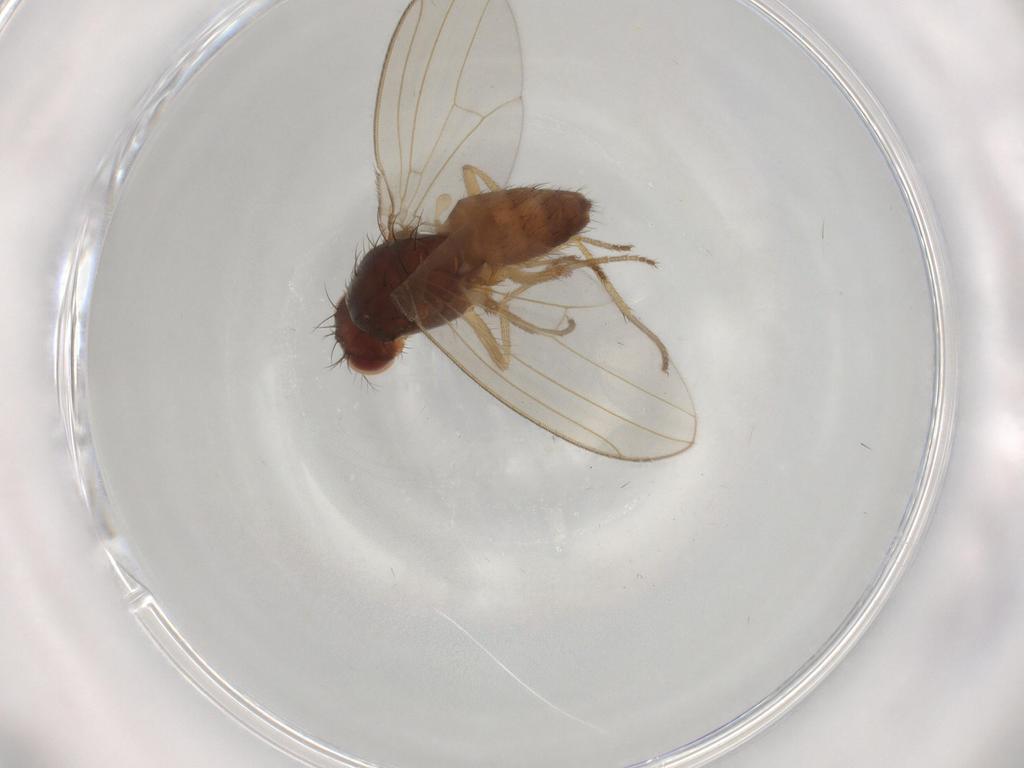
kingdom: Animalia
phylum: Arthropoda
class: Insecta
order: Diptera
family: Drosophilidae
